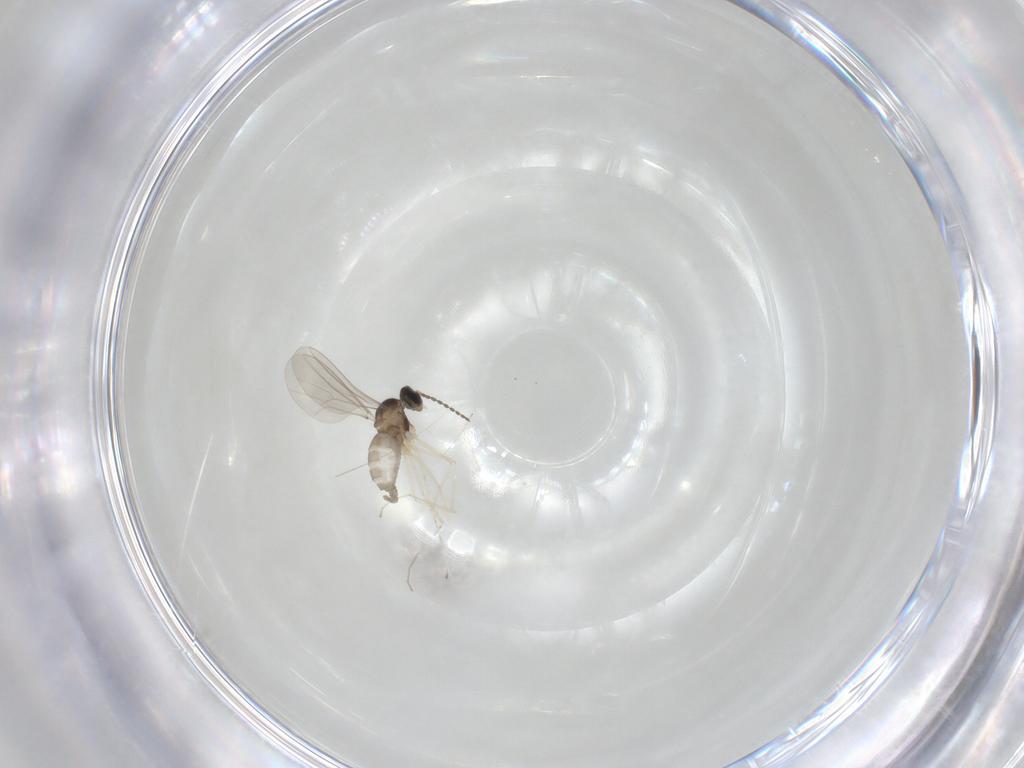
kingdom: Animalia
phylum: Arthropoda
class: Insecta
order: Diptera
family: Cecidomyiidae
